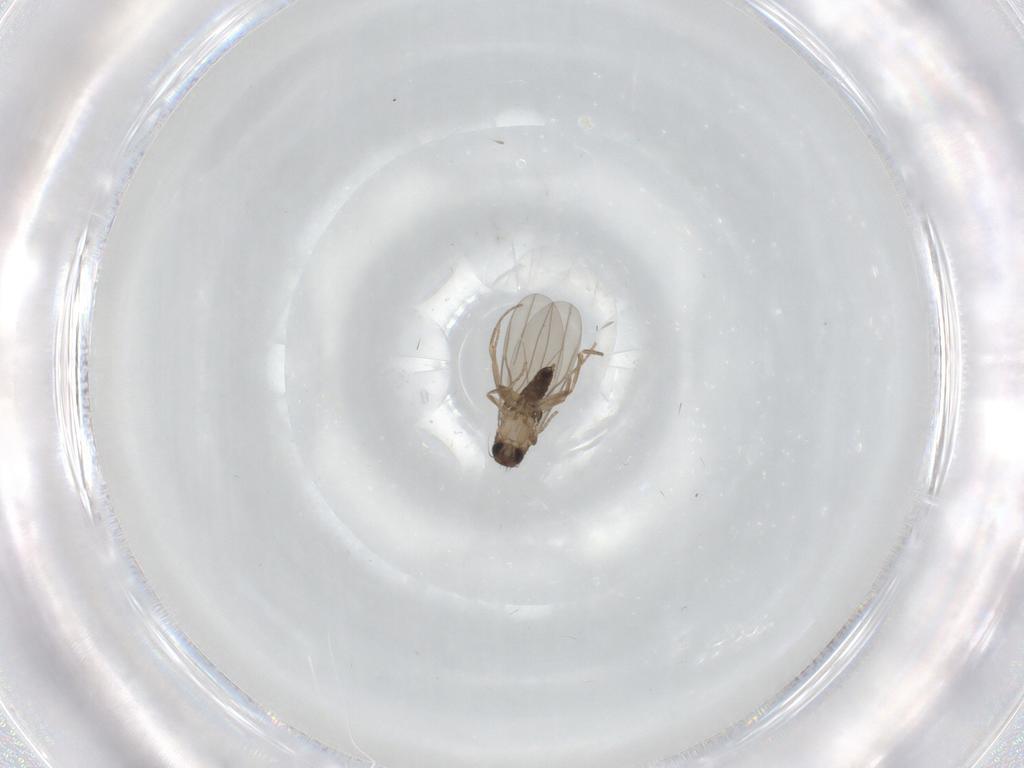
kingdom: Animalia
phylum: Arthropoda
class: Insecta
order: Diptera
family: Phoridae
